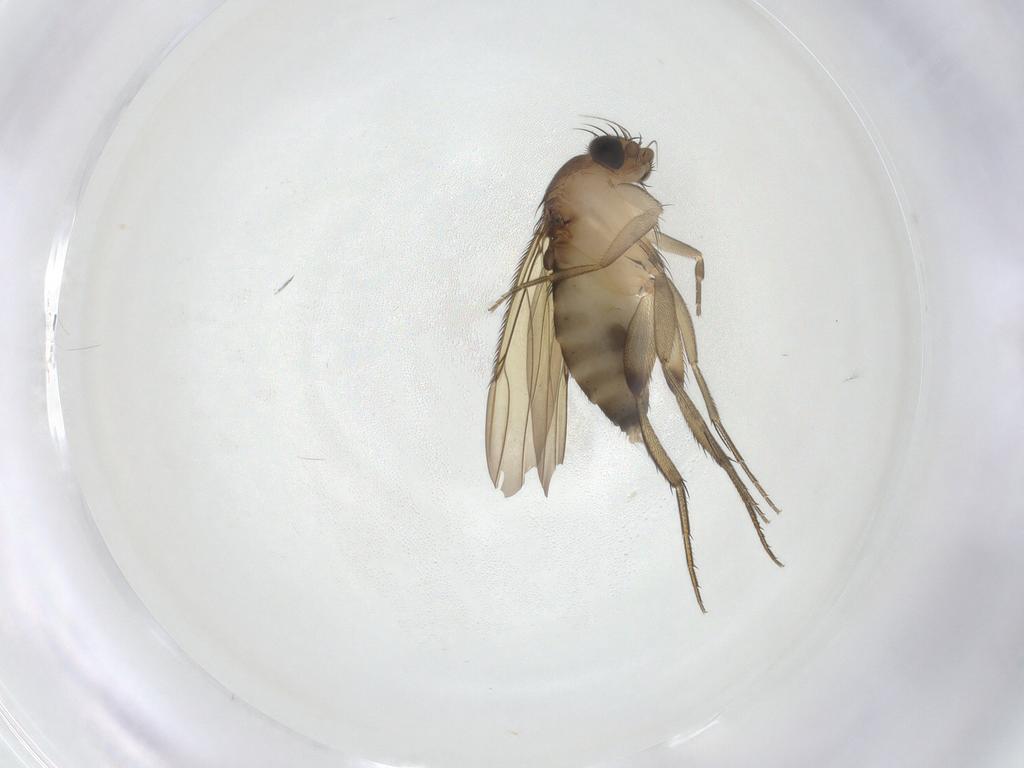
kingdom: Animalia
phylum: Arthropoda
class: Insecta
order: Diptera
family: Phoridae
